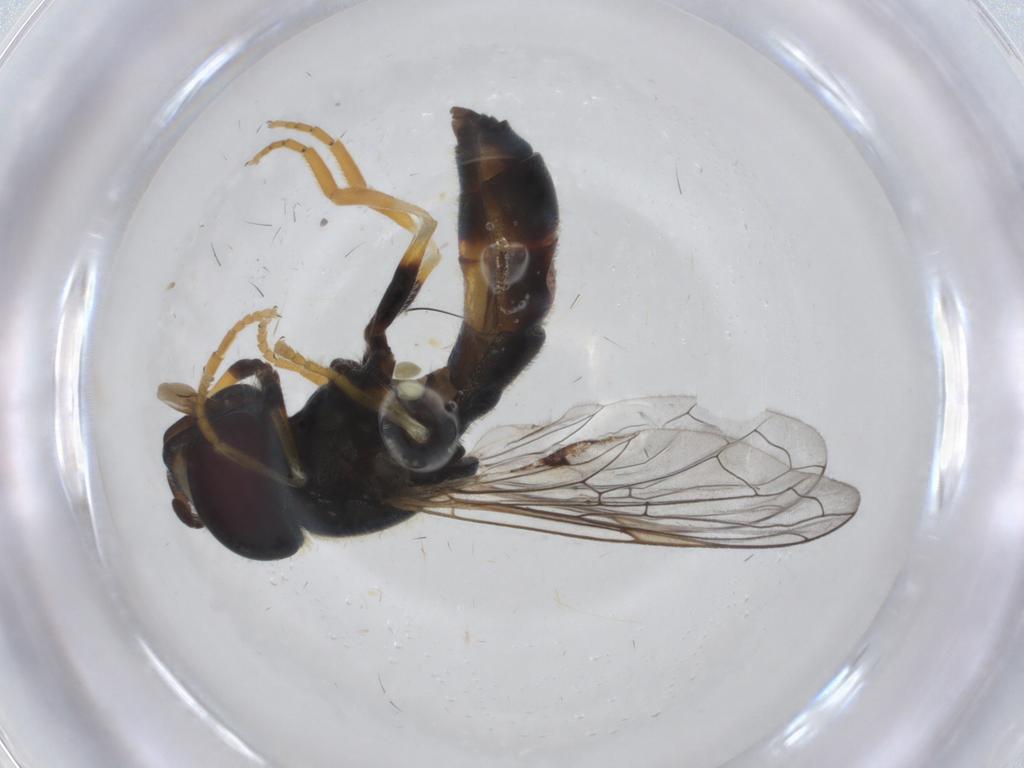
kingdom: Animalia
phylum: Arthropoda
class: Insecta
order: Diptera
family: Syrphidae
